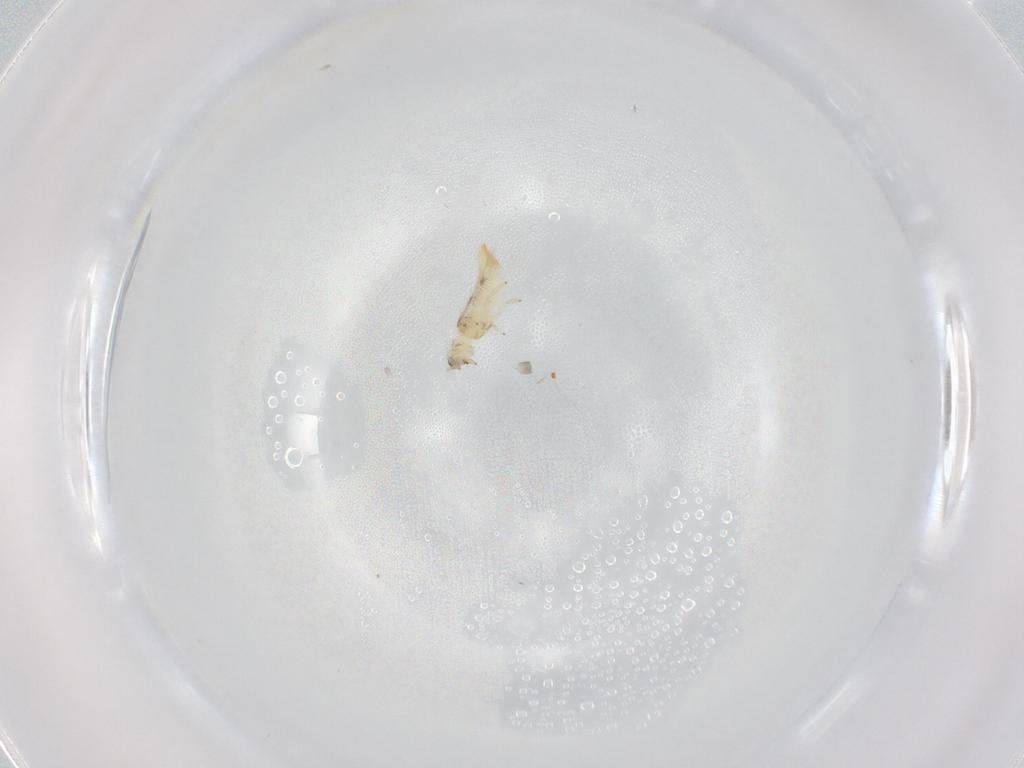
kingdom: Animalia
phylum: Arthropoda
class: Insecta
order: Thysanoptera
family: Thripidae
